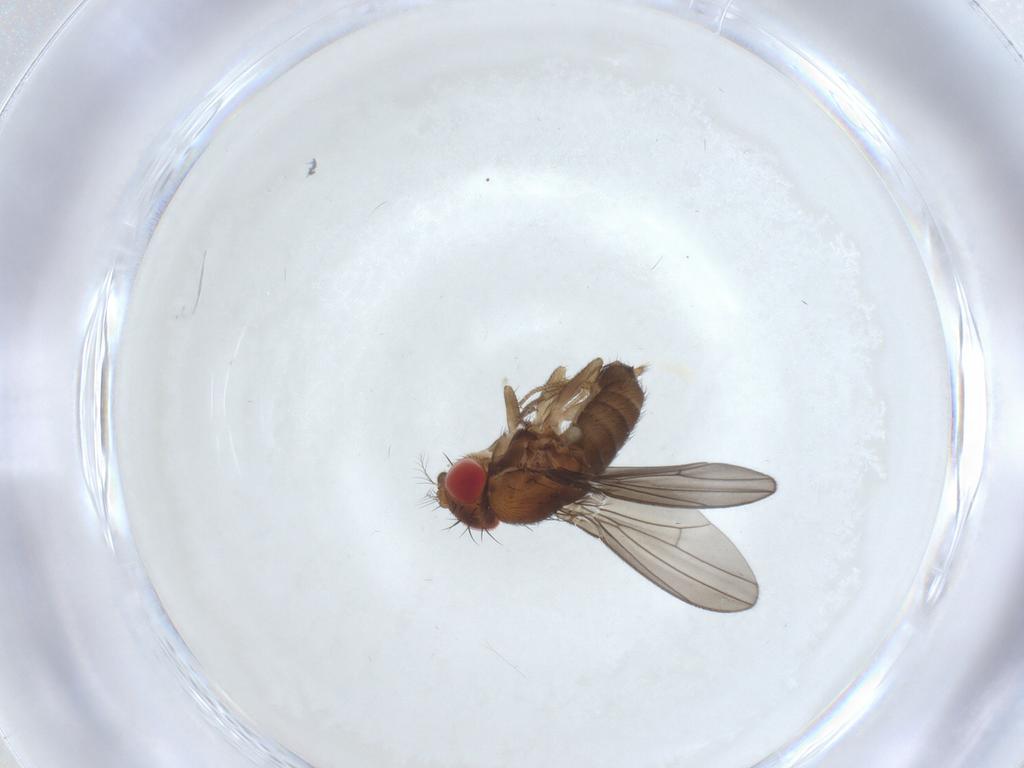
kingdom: Animalia
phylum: Arthropoda
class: Insecta
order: Diptera
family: Drosophilidae
